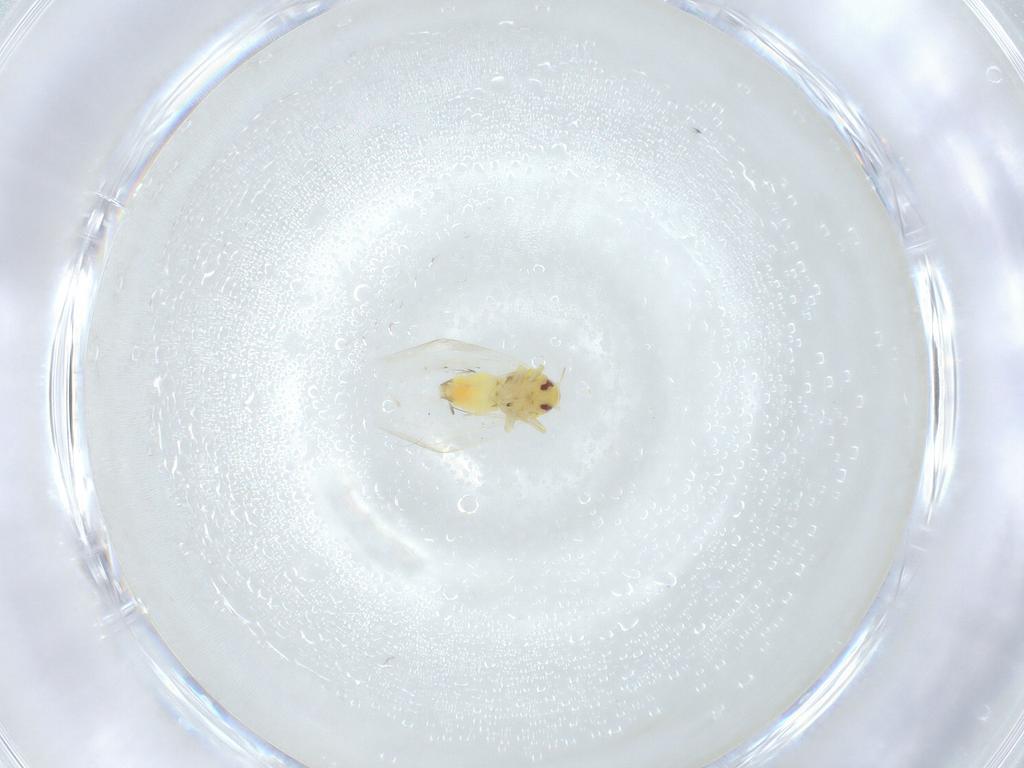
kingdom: Animalia
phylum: Arthropoda
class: Insecta
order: Hemiptera
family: Aleyrodidae
